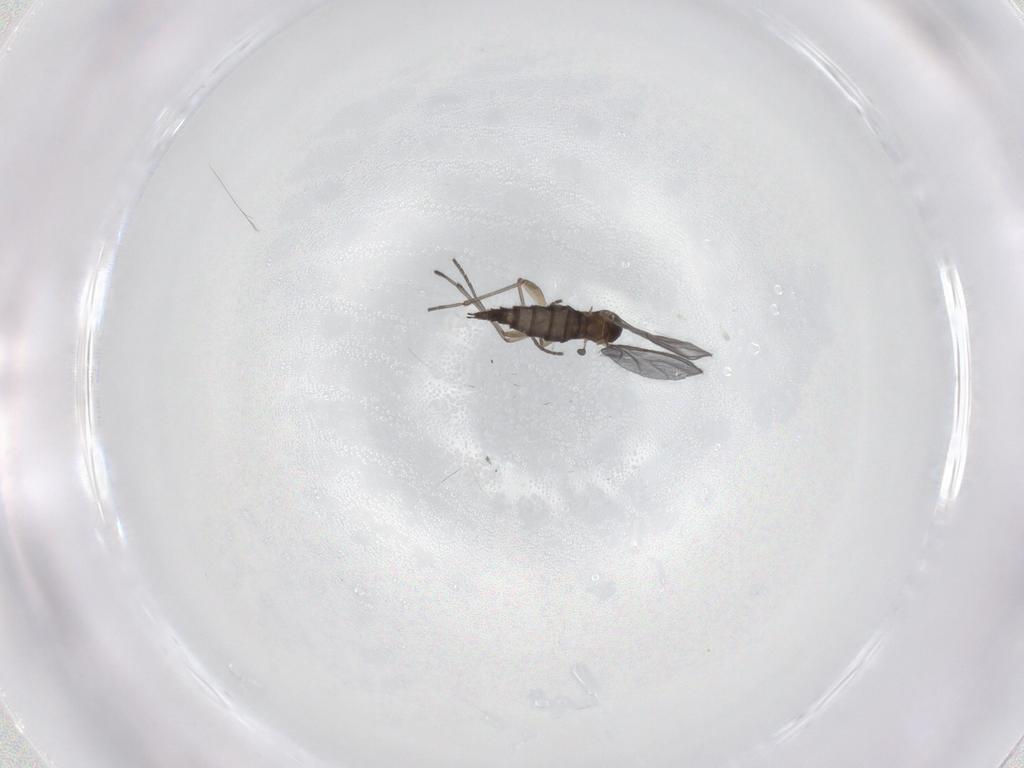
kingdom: Animalia
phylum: Arthropoda
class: Insecta
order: Diptera
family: Sciaridae
